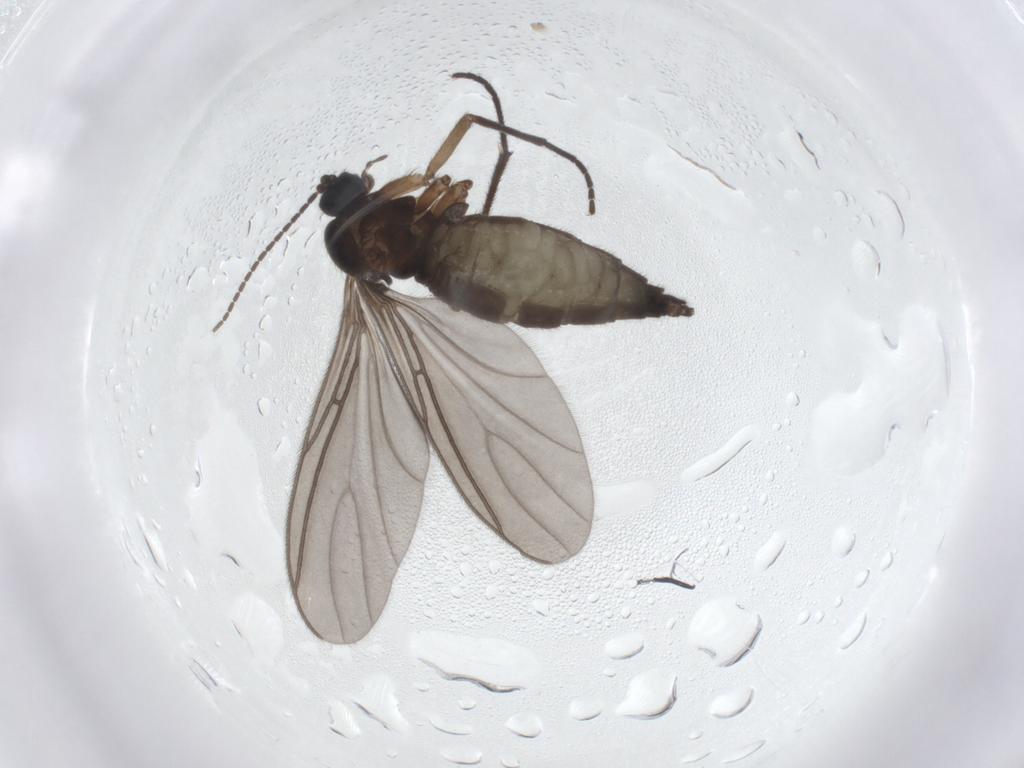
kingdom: Animalia
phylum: Arthropoda
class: Insecta
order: Diptera
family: Sciaridae
